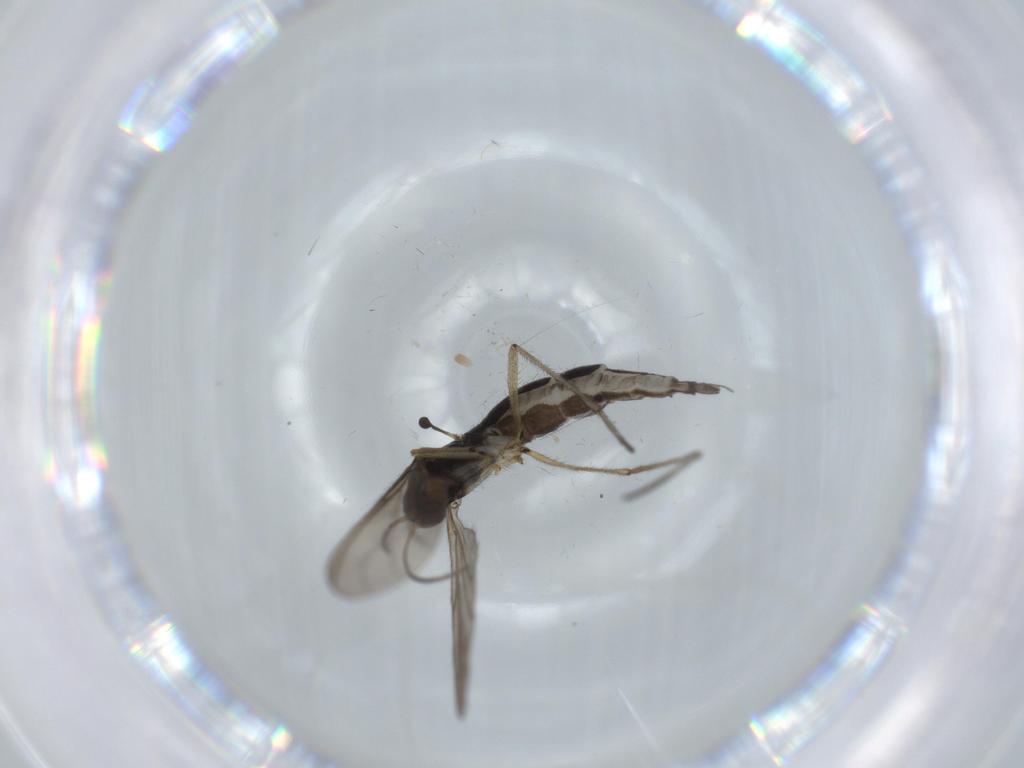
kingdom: Animalia
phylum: Arthropoda
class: Insecta
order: Diptera
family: Sciaridae
